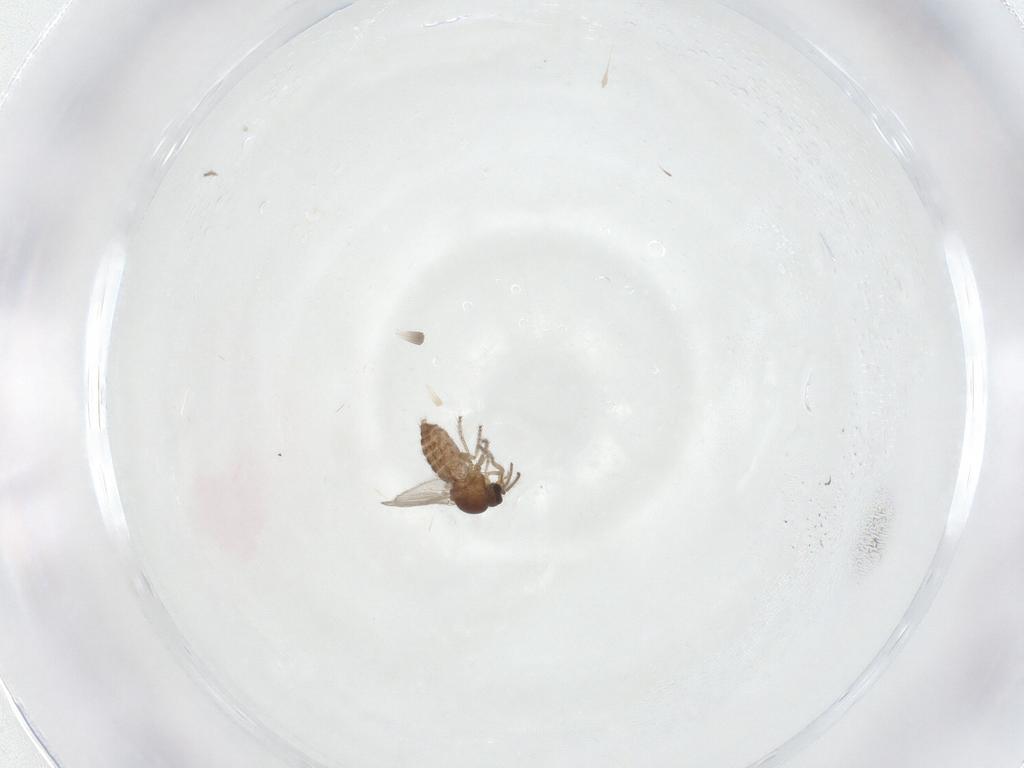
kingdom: Animalia
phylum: Arthropoda
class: Insecta
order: Diptera
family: Ceratopogonidae
